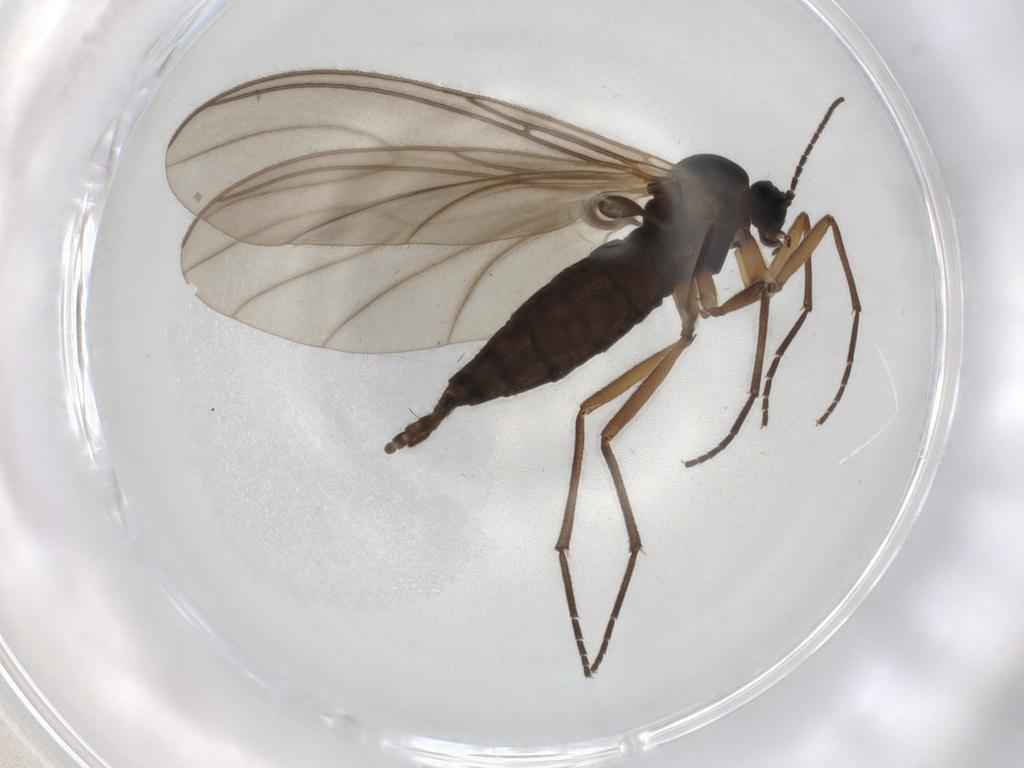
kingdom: Animalia
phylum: Arthropoda
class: Insecta
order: Diptera
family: Sciaridae
